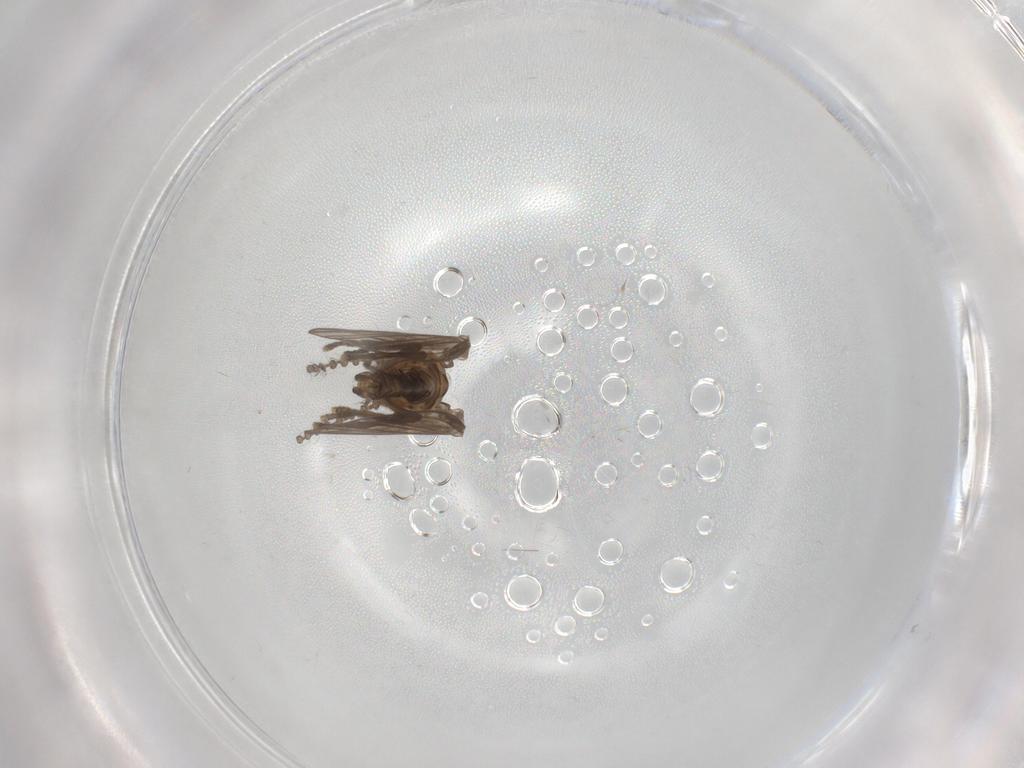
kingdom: Animalia
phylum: Arthropoda
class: Insecta
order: Diptera
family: Psychodidae
